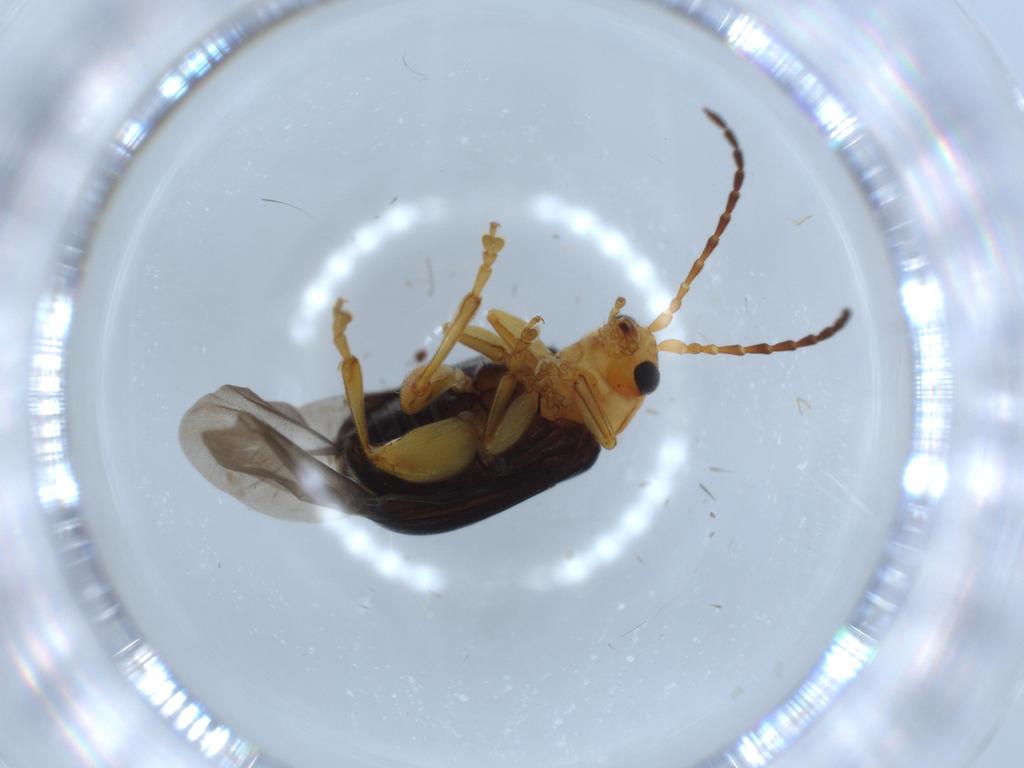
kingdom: Animalia
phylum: Arthropoda
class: Insecta
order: Coleoptera
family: Chrysomelidae
